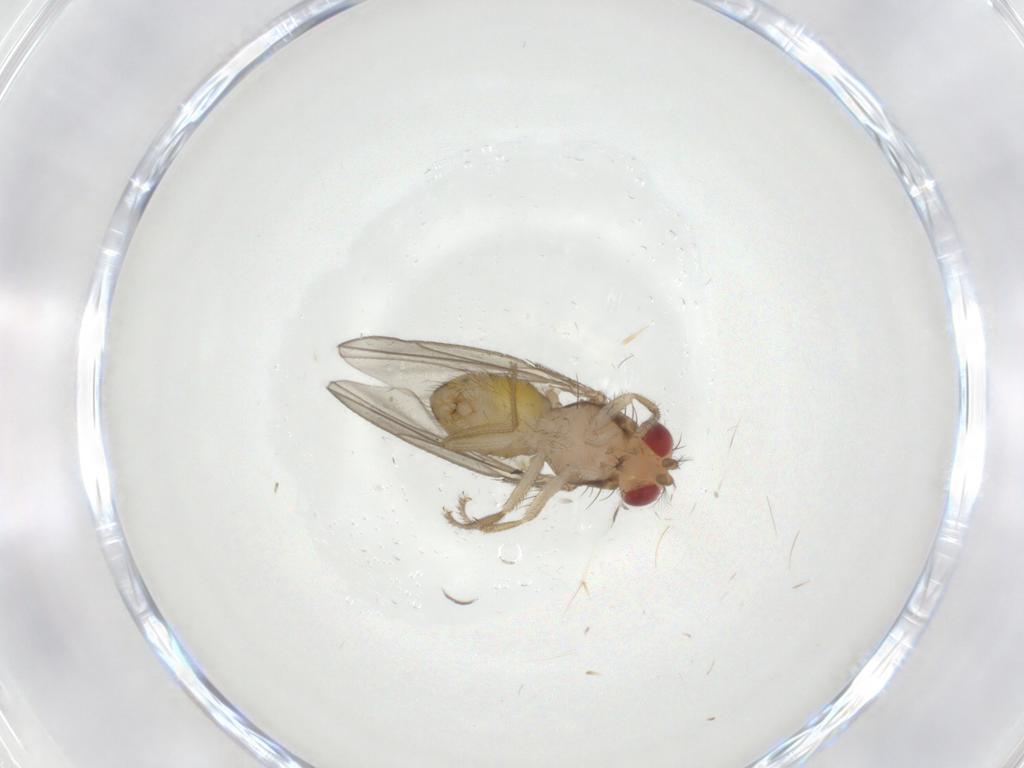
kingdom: Animalia
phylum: Arthropoda
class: Insecta
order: Diptera
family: Drosophilidae
